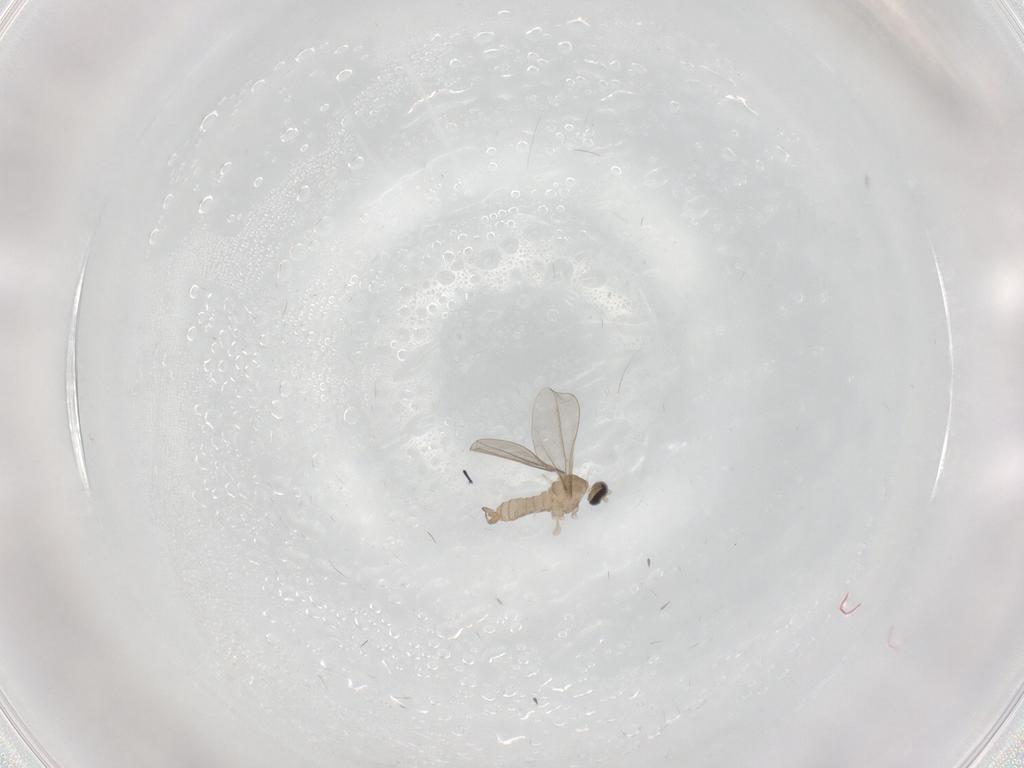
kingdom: Animalia
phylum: Arthropoda
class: Insecta
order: Diptera
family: Cecidomyiidae
